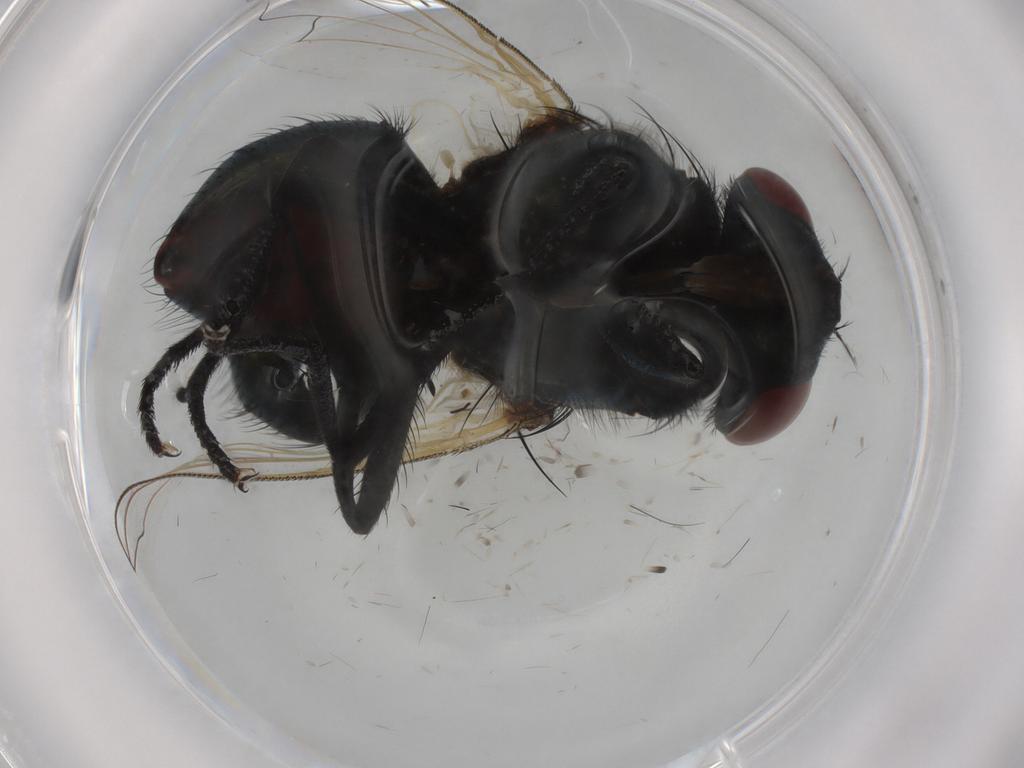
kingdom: Animalia
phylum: Arthropoda
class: Insecta
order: Diptera
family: Muscidae
